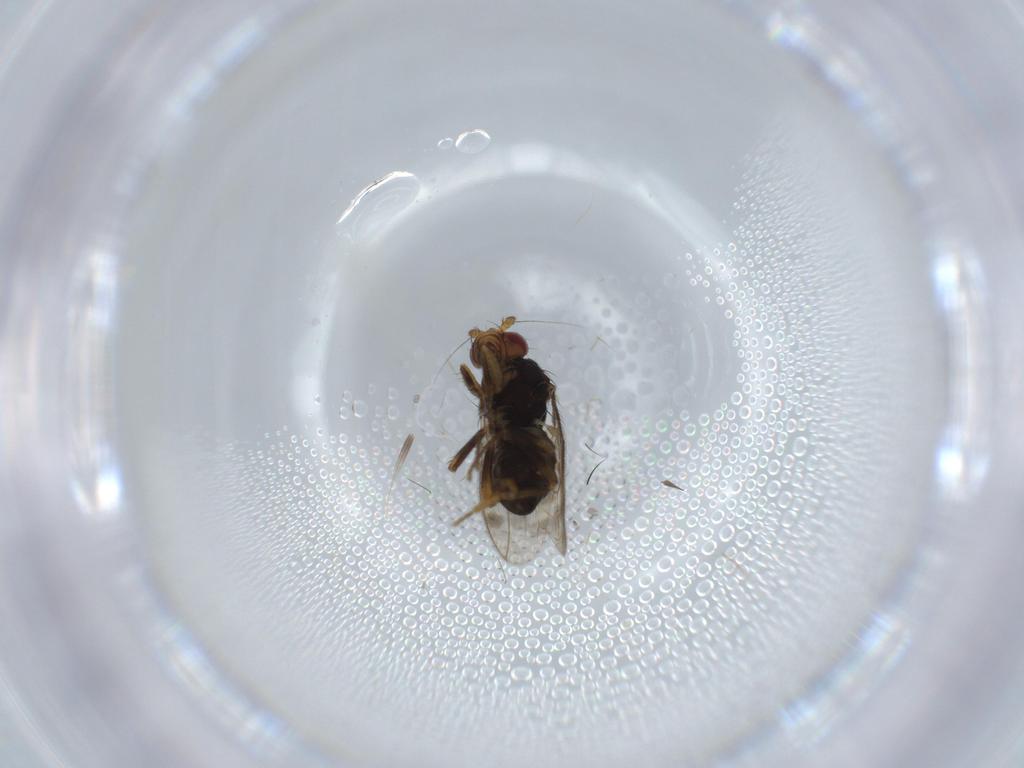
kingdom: Animalia
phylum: Arthropoda
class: Insecta
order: Diptera
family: Sphaeroceridae
